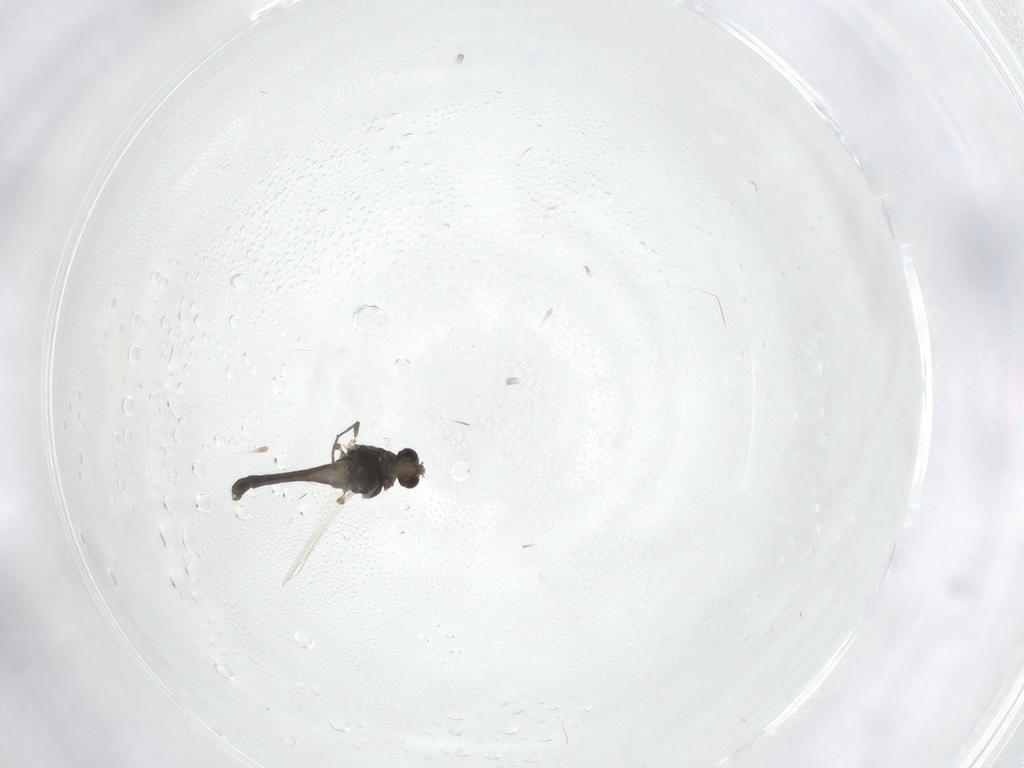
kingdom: Animalia
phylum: Arthropoda
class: Insecta
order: Diptera
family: Chironomidae
